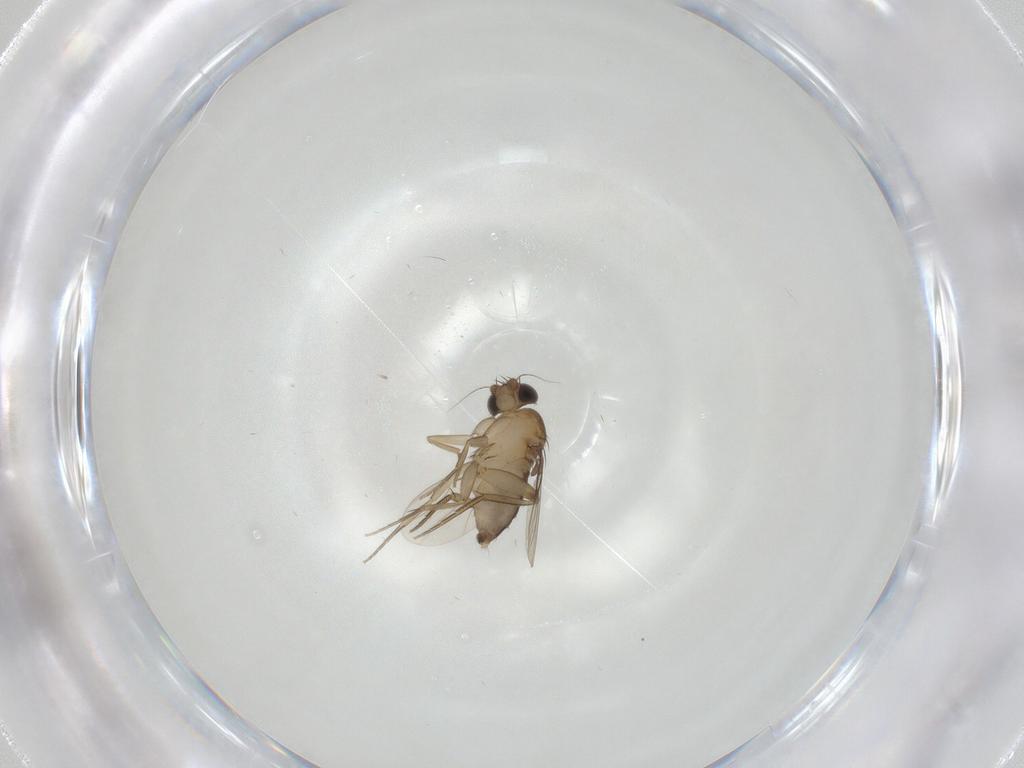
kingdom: Animalia
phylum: Arthropoda
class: Insecta
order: Diptera
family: Phoridae
